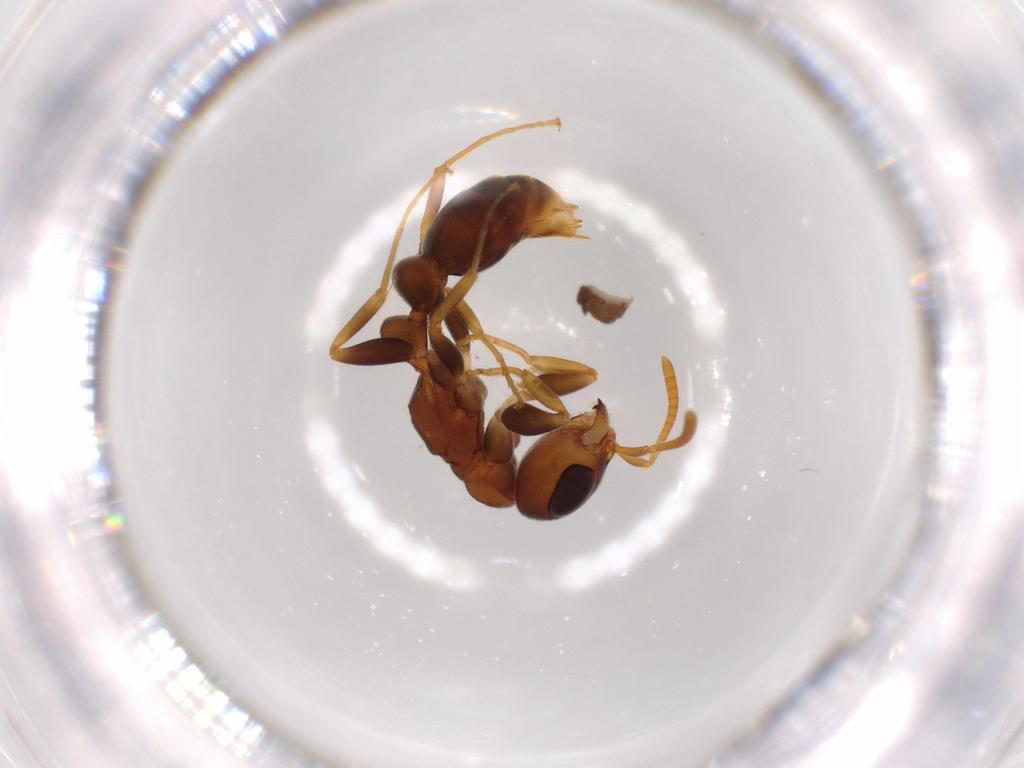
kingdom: Animalia
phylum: Arthropoda
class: Insecta
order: Hymenoptera
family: Formicidae
